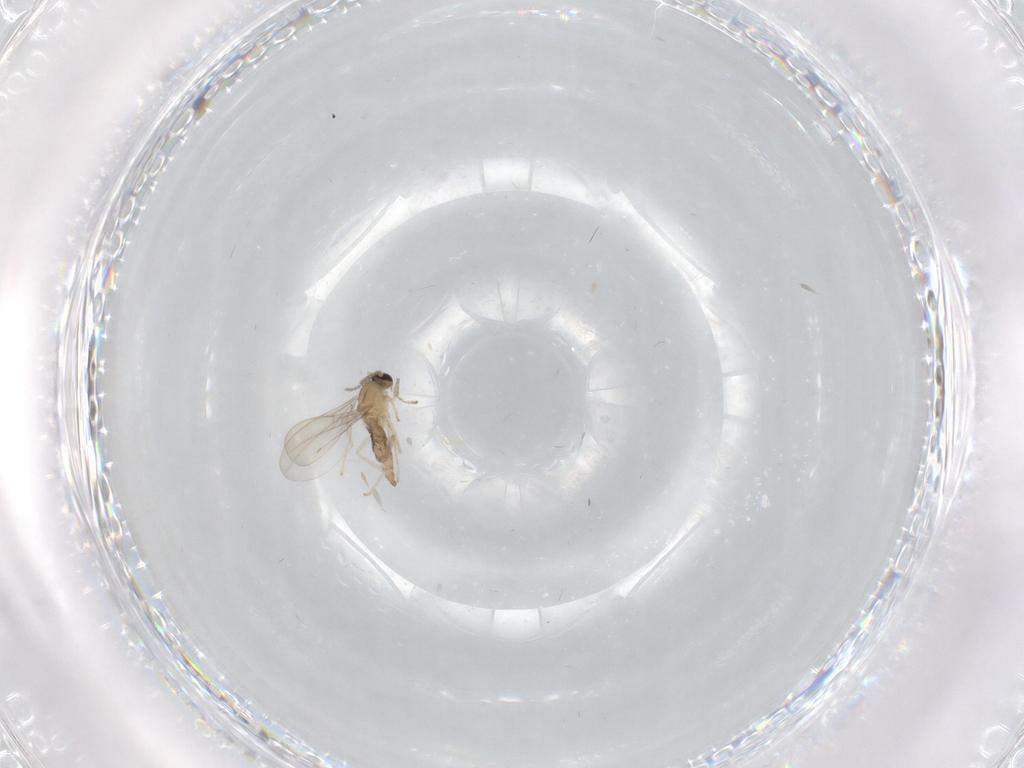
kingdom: Animalia
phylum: Arthropoda
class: Insecta
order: Diptera
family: Cecidomyiidae
